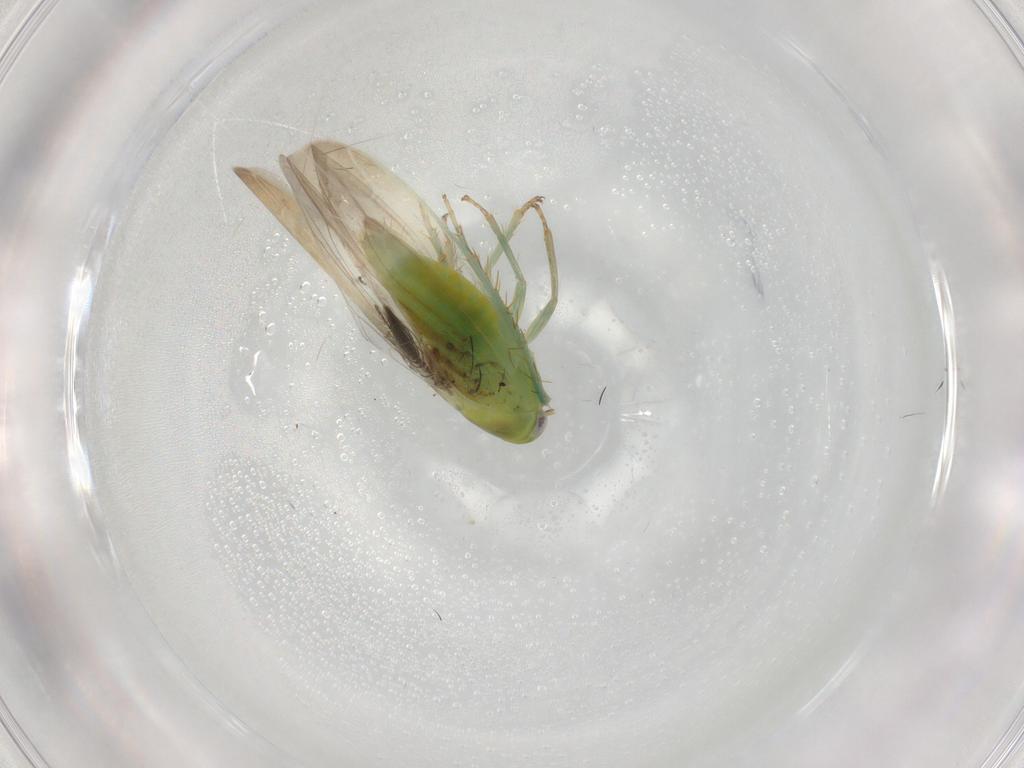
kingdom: Animalia
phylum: Arthropoda
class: Insecta
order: Hemiptera
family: Cicadellidae
